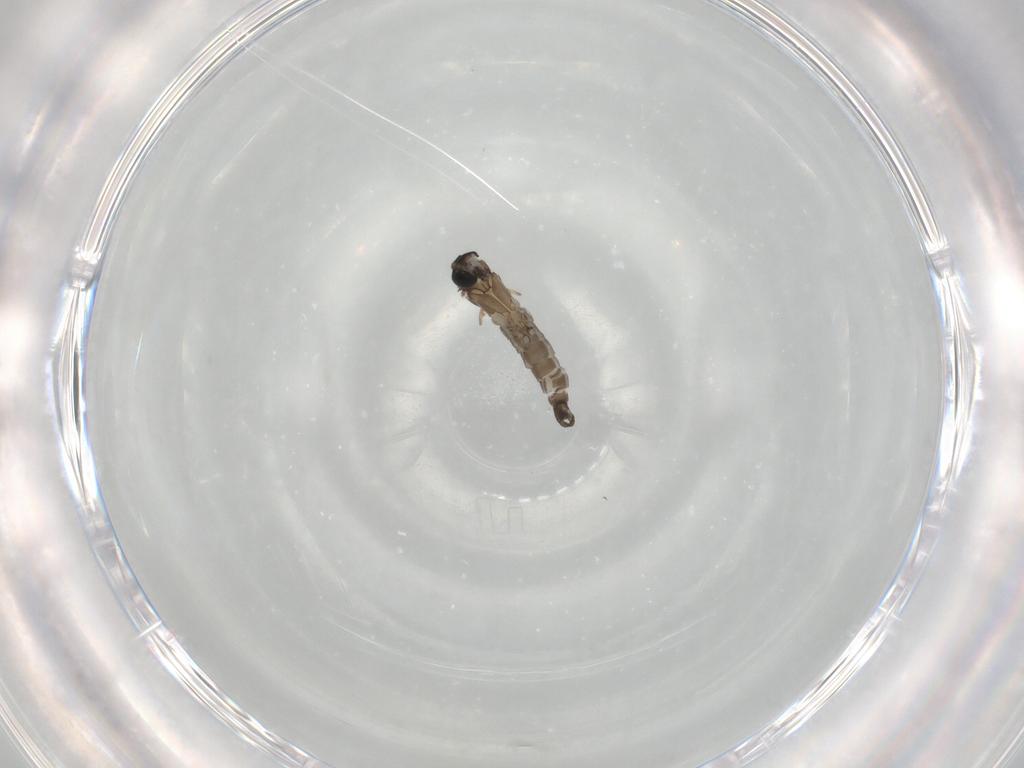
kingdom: Animalia
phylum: Arthropoda
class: Insecta
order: Diptera
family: Sciaridae
